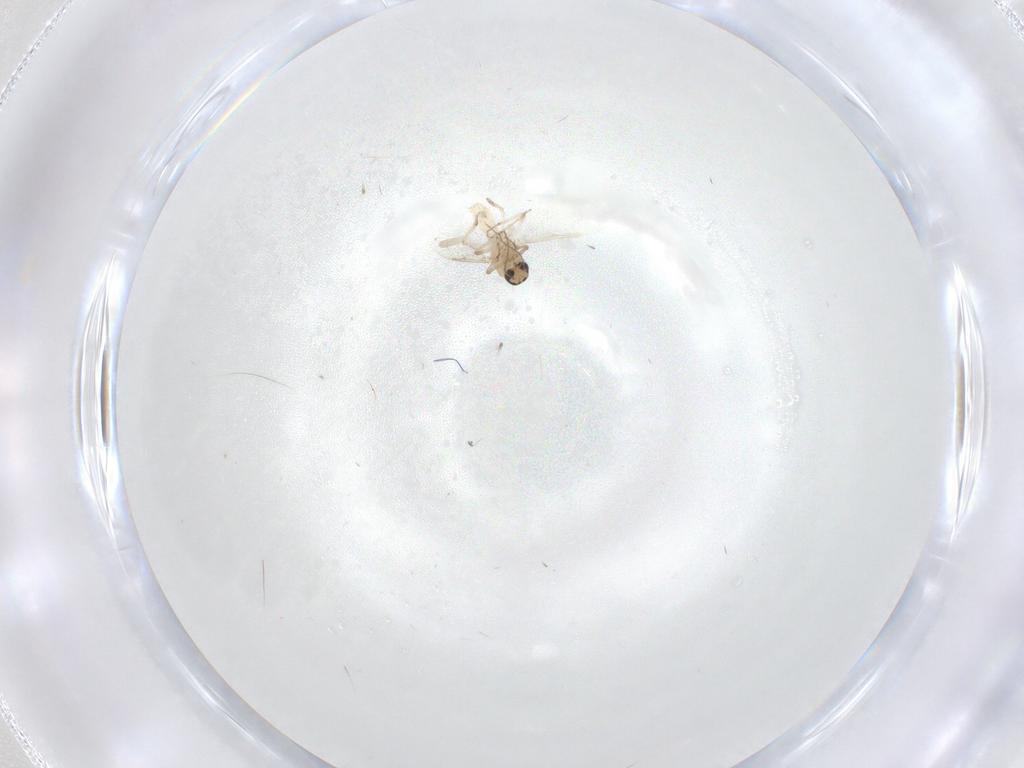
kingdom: Animalia
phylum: Arthropoda
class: Insecta
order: Diptera
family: Ceratopogonidae
